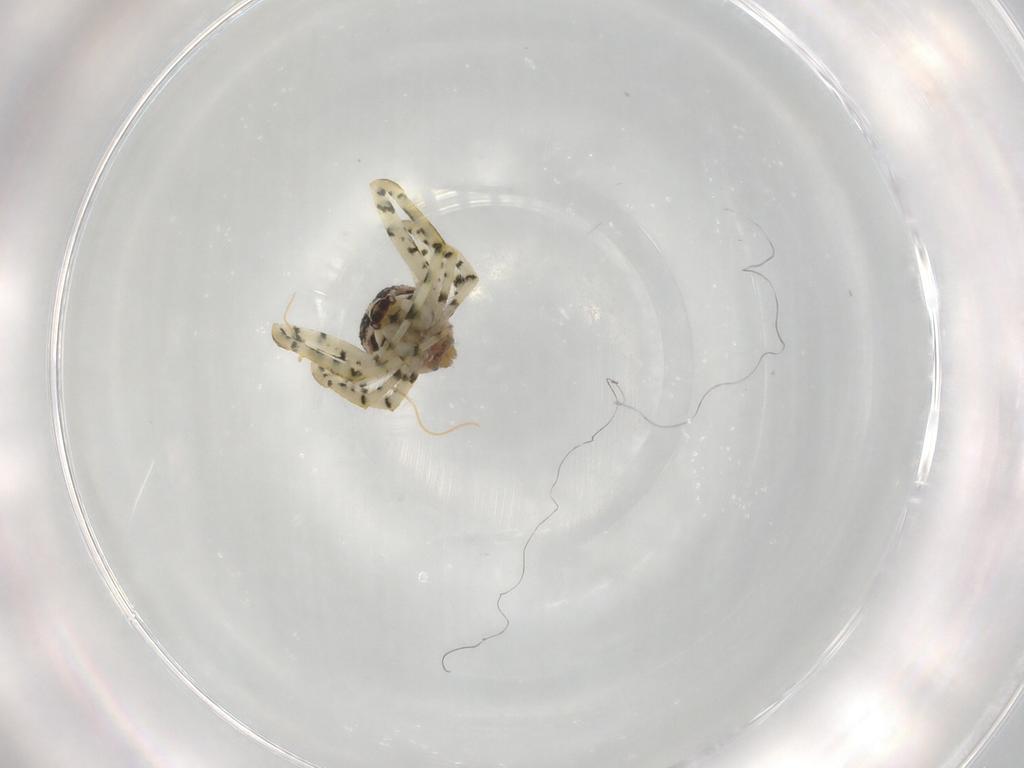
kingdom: Animalia
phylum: Arthropoda
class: Arachnida
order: Araneae
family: Theridiidae
